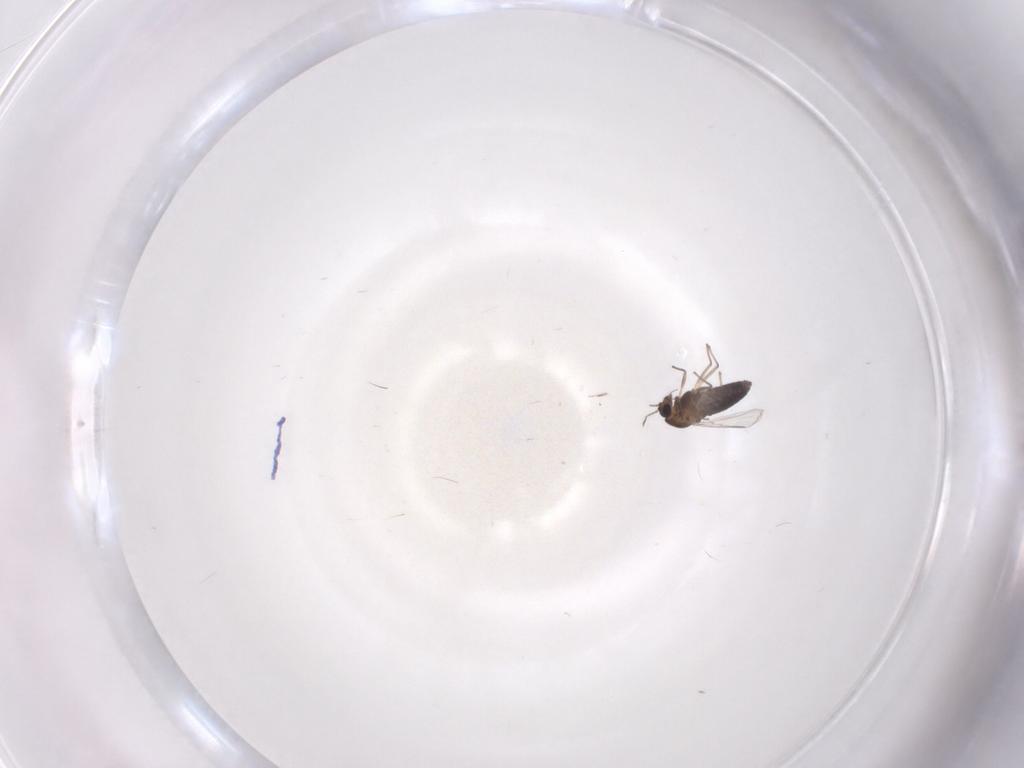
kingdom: Animalia
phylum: Arthropoda
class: Insecta
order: Diptera
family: Chironomidae
